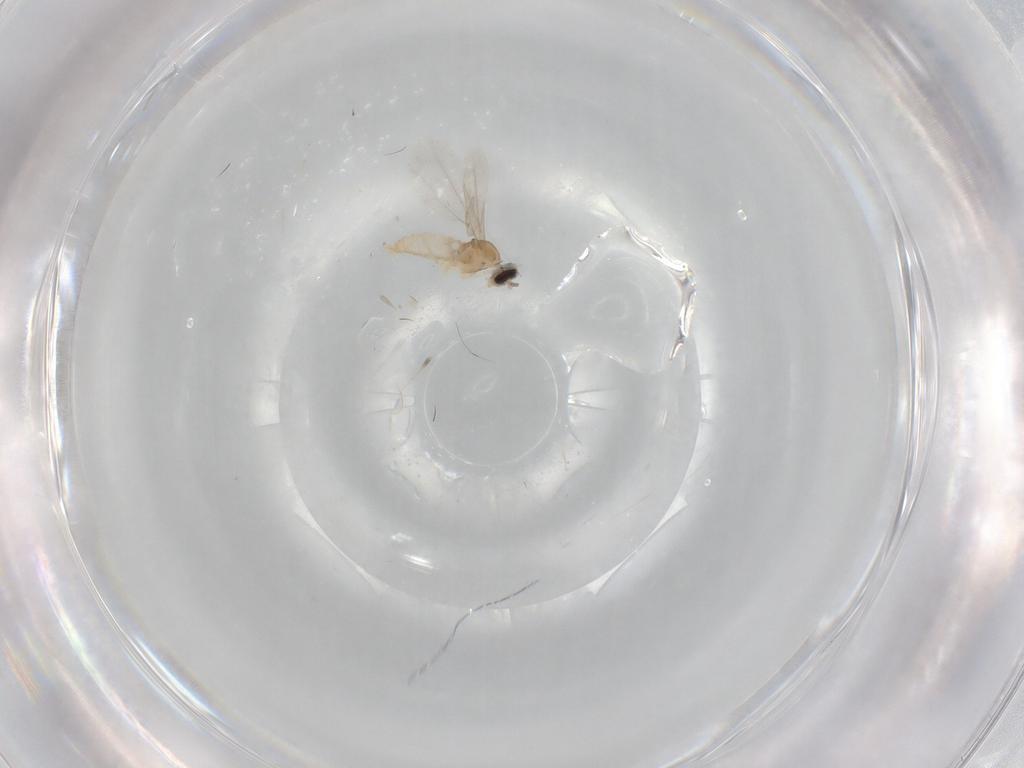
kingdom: Animalia
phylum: Arthropoda
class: Insecta
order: Diptera
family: Cecidomyiidae
